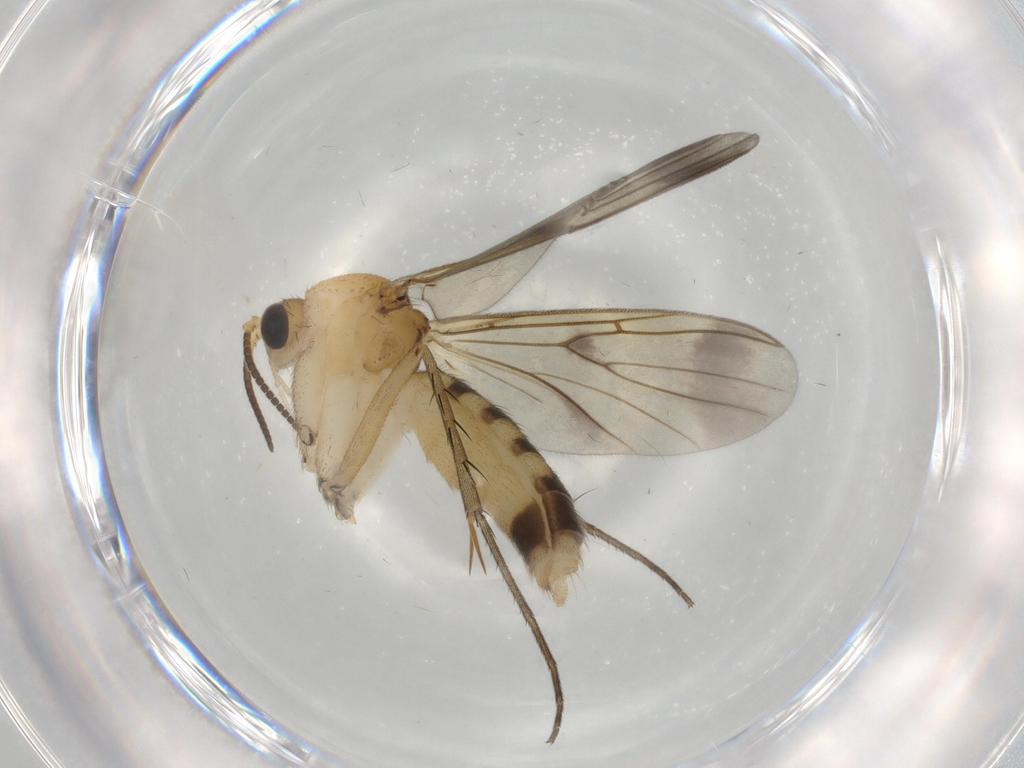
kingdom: Animalia
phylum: Arthropoda
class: Insecta
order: Diptera
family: Mycetophilidae
